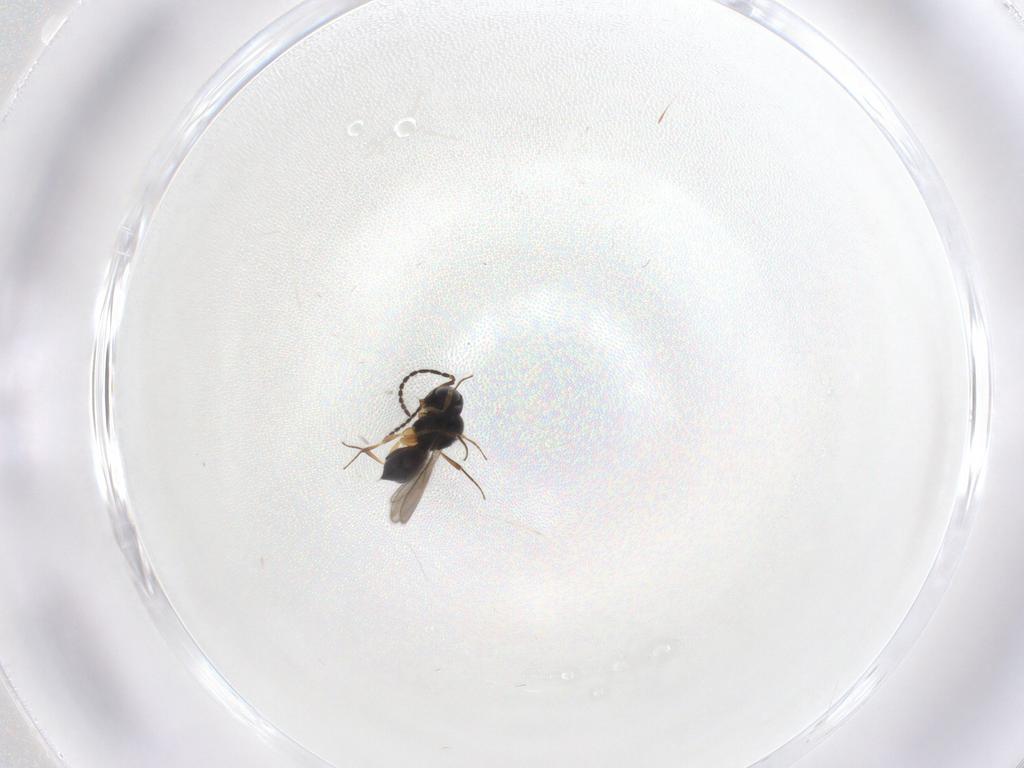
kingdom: Animalia
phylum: Arthropoda
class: Insecta
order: Hymenoptera
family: Scelionidae
